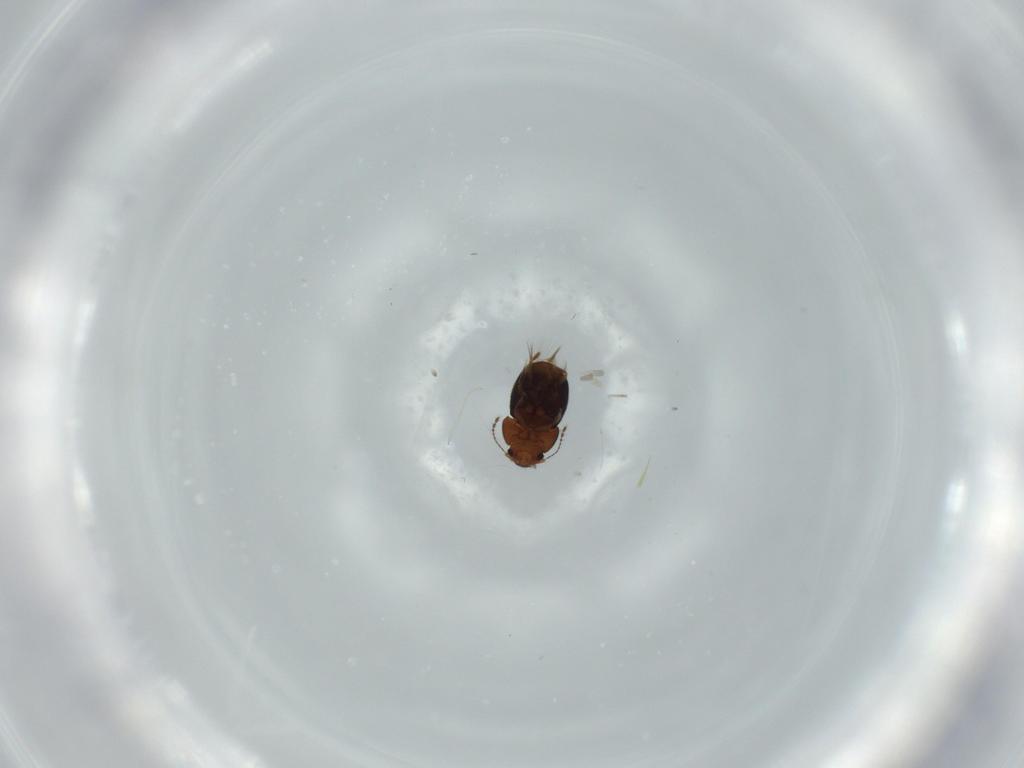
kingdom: Animalia
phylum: Arthropoda
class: Insecta
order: Coleoptera
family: Ptiliidae
